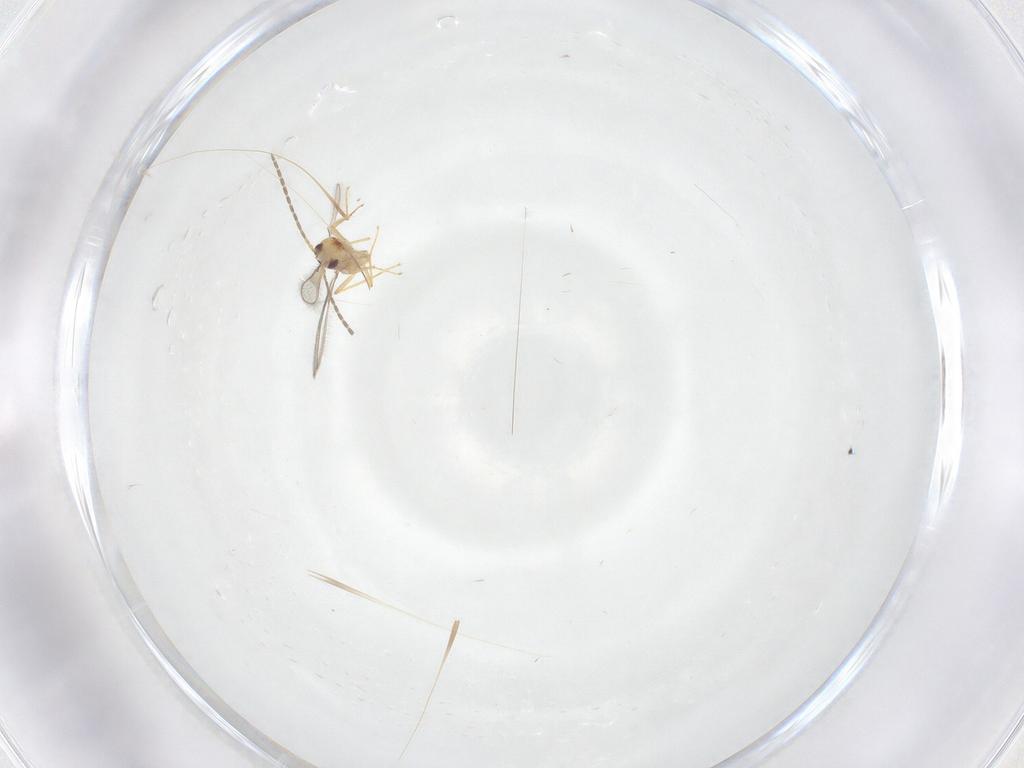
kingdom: Animalia
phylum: Arthropoda
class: Insecta
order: Hymenoptera
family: Mymaridae
